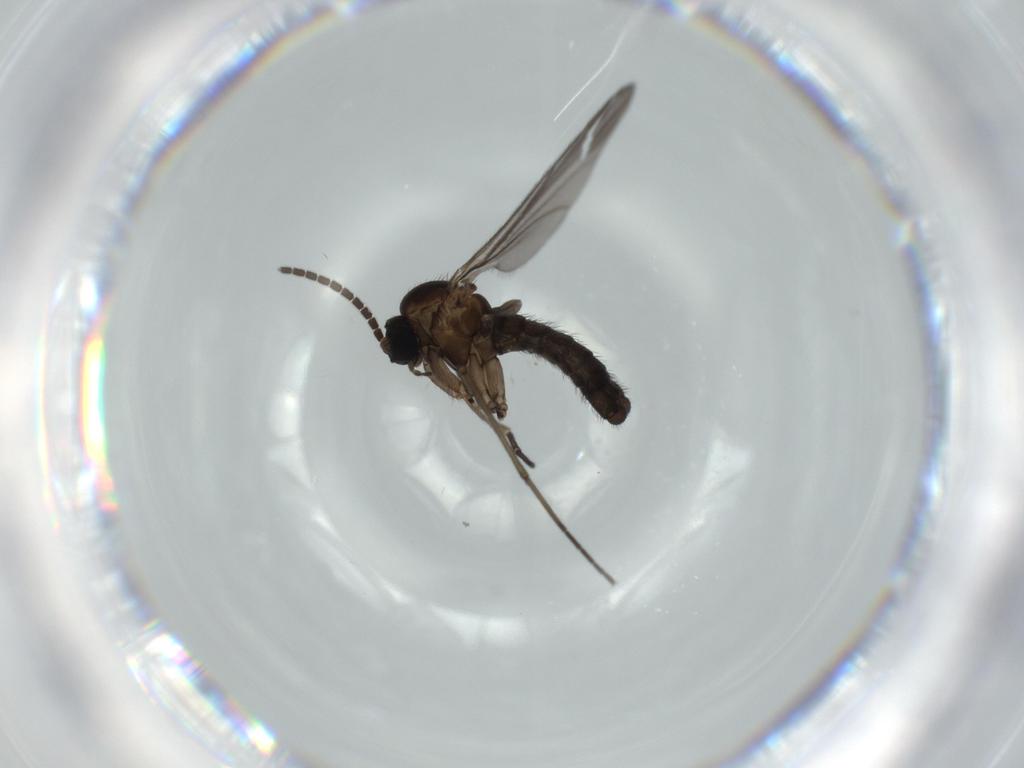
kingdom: Animalia
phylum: Arthropoda
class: Insecta
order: Diptera
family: Sciaridae
